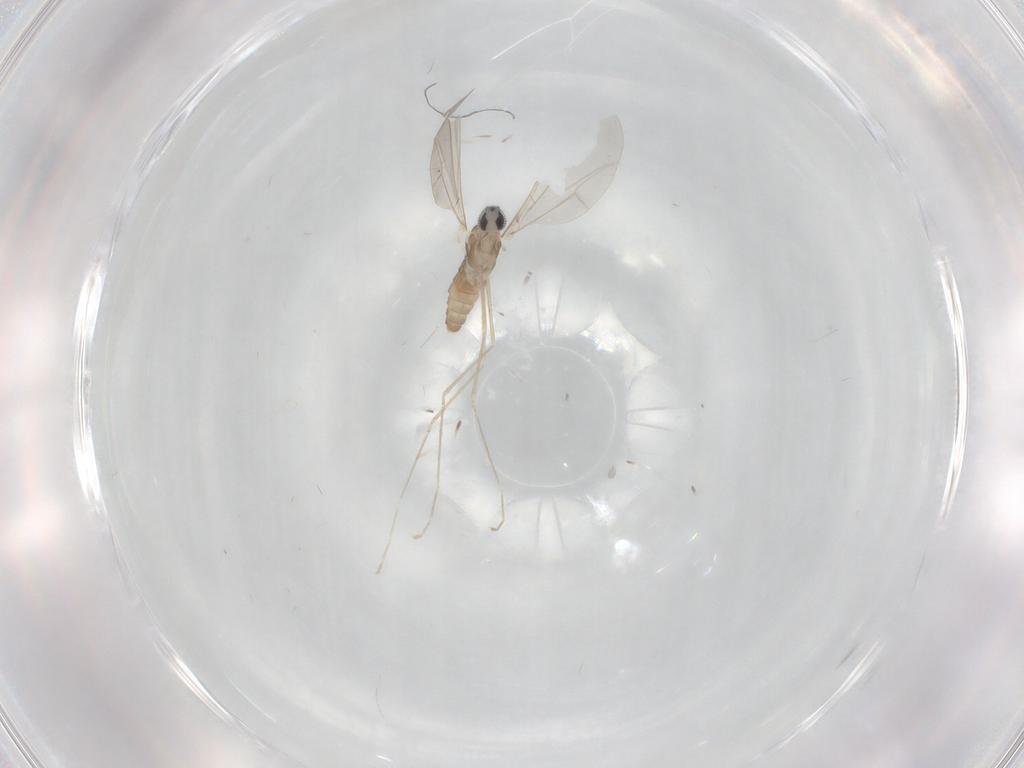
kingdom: Animalia
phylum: Arthropoda
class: Insecta
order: Diptera
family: Cecidomyiidae
